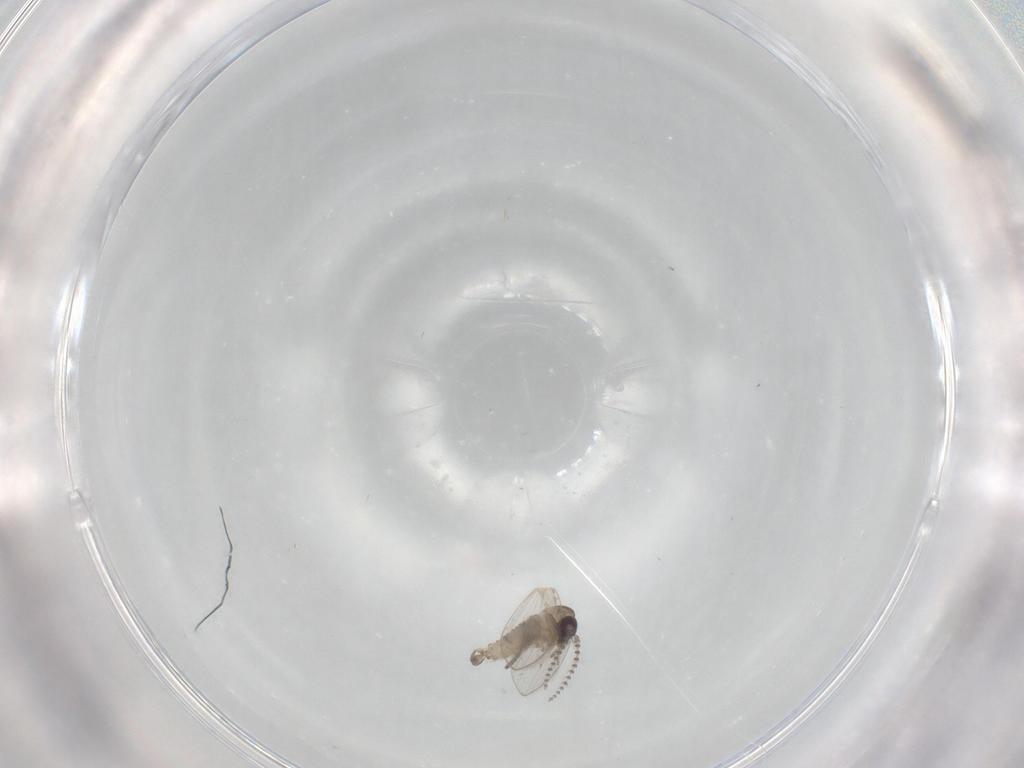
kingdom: Animalia
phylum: Arthropoda
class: Insecta
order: Diptera
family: Psychodidae
